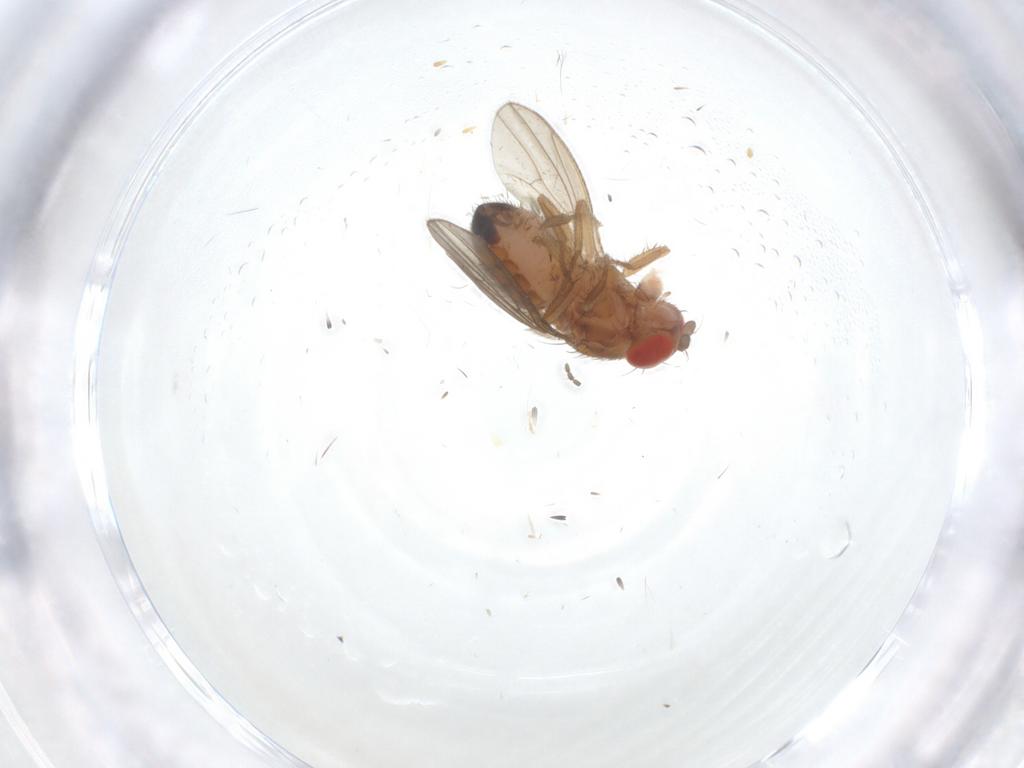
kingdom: Animalia
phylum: Arthropoda
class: Insecta
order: Diptera
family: Drosophilidae
